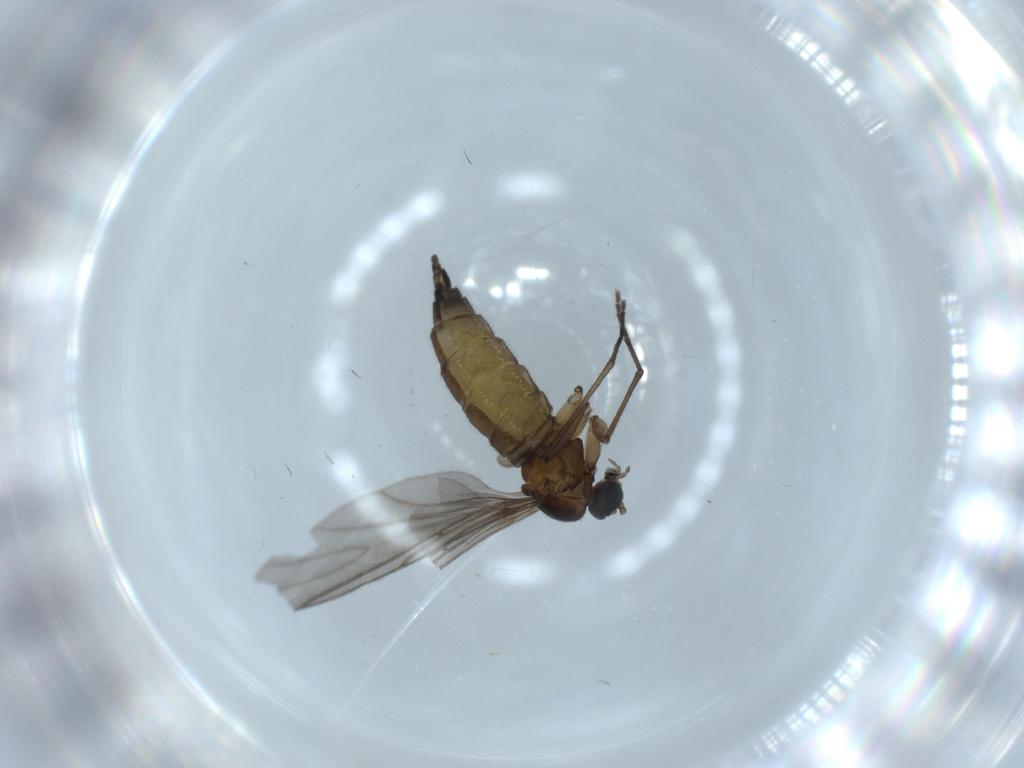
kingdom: Animalia
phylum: Arthropoda
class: Insecta
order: Diptera
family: Sciaridae
